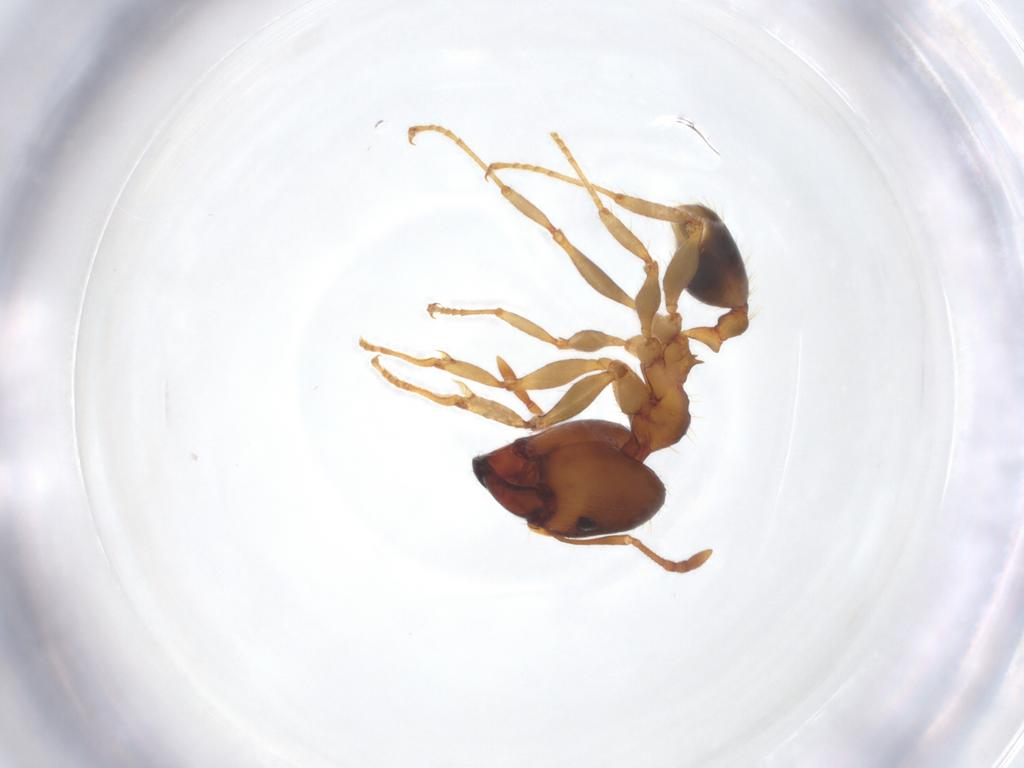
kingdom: Animalia
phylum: Arthropoda
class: Insecta
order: Hymenoptera
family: Formicidae
